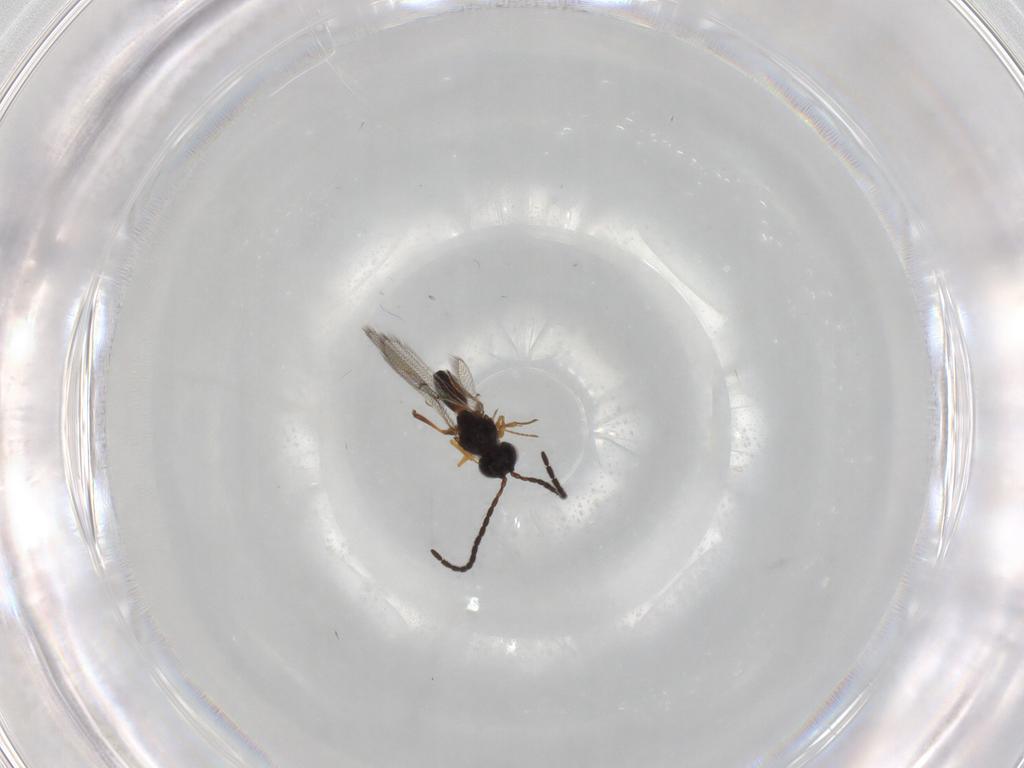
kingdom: Animalia
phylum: Arthropoda
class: Insecta
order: Hymenoptera
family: Figitidae
